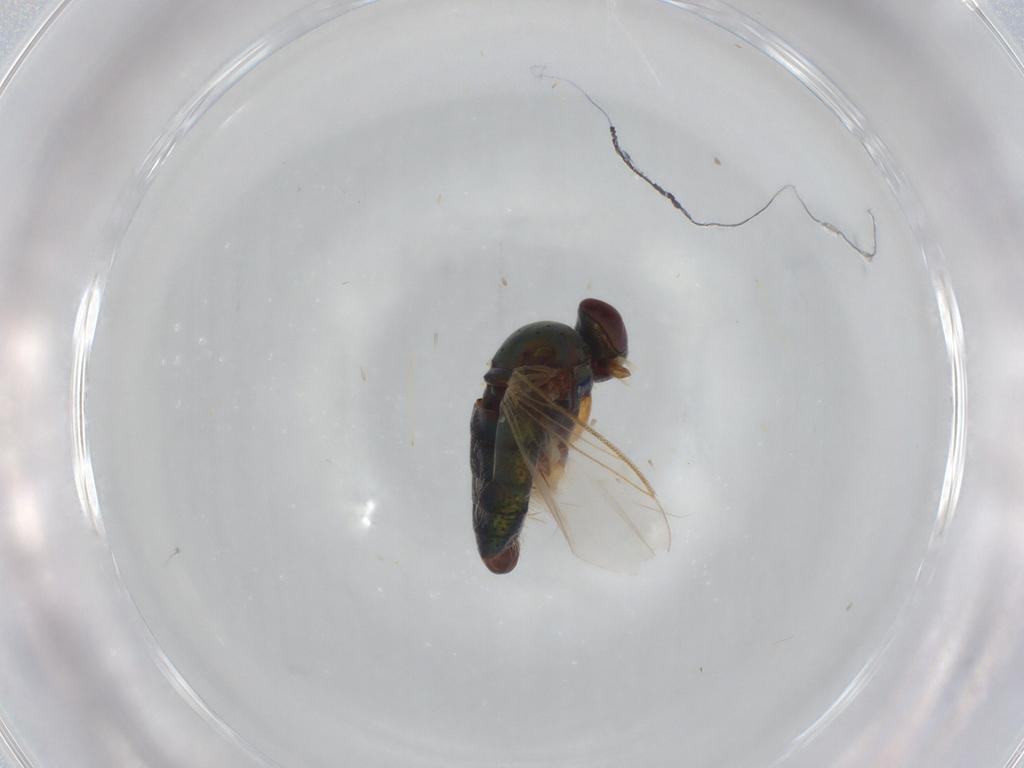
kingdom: Animalia
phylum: Arthropoda
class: Insecta
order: Diptera
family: Dolichopodidae
